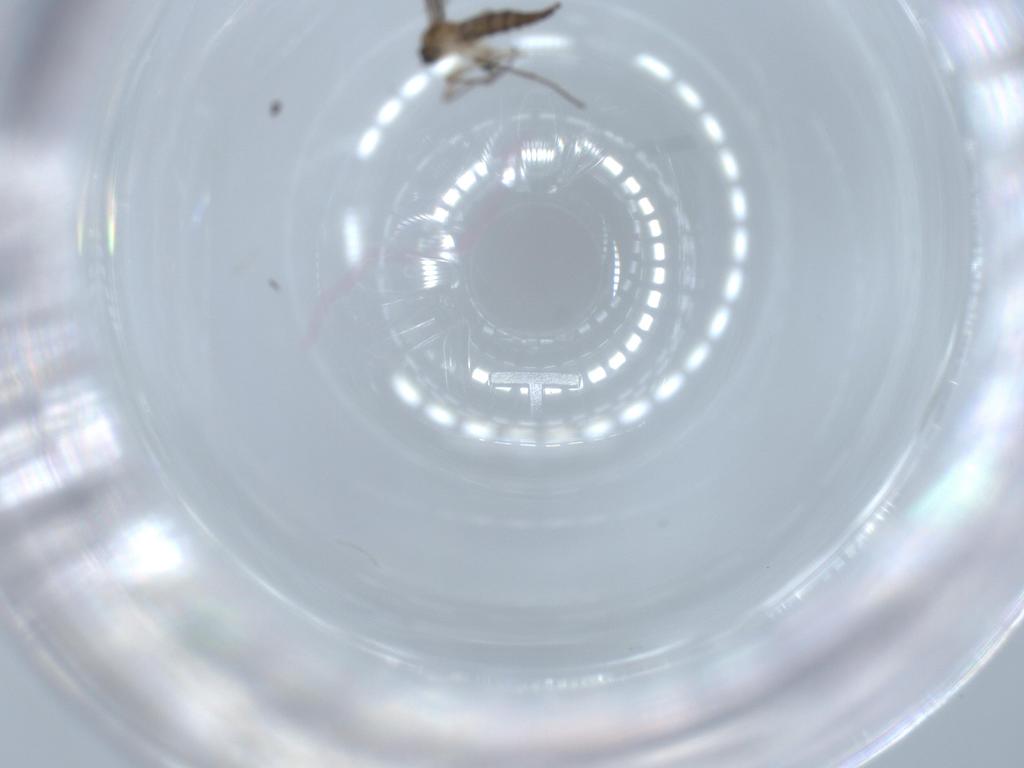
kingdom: Animalia
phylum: Arthropoda
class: Insecta
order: Diptera
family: Sciaridae
